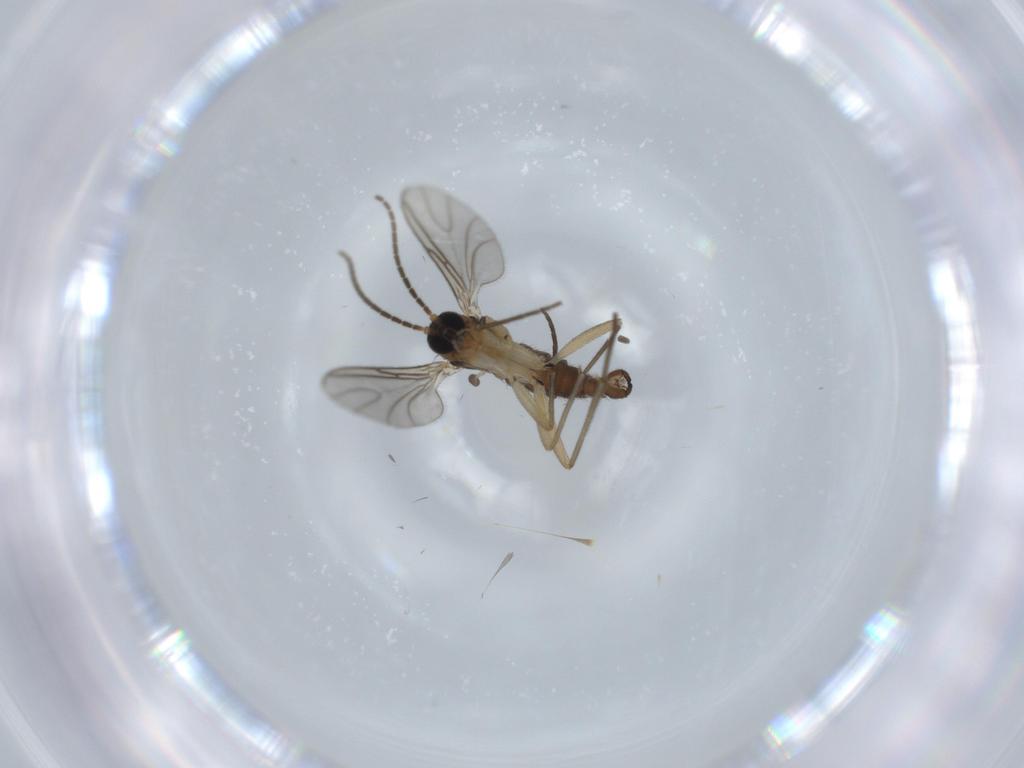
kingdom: Animalia
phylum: Arthropoda
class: Insecta
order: Diptera
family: Sciaridae
